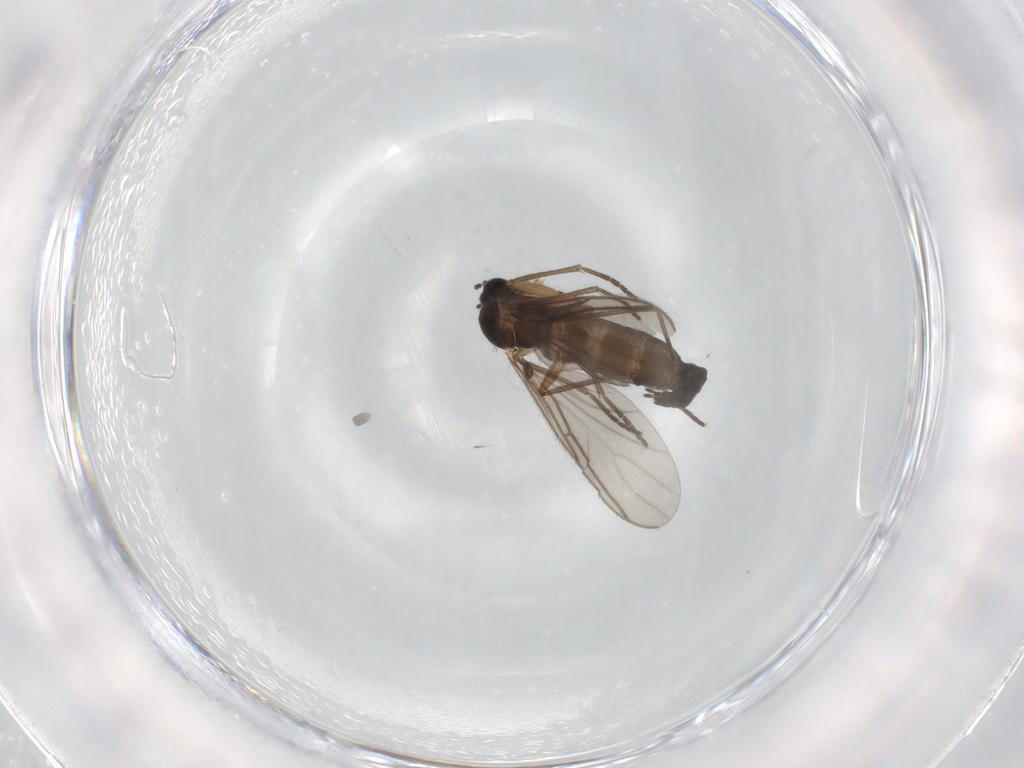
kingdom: Animalia
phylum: Arthropoda
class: Insecta
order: Diptera
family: Sciaridae
